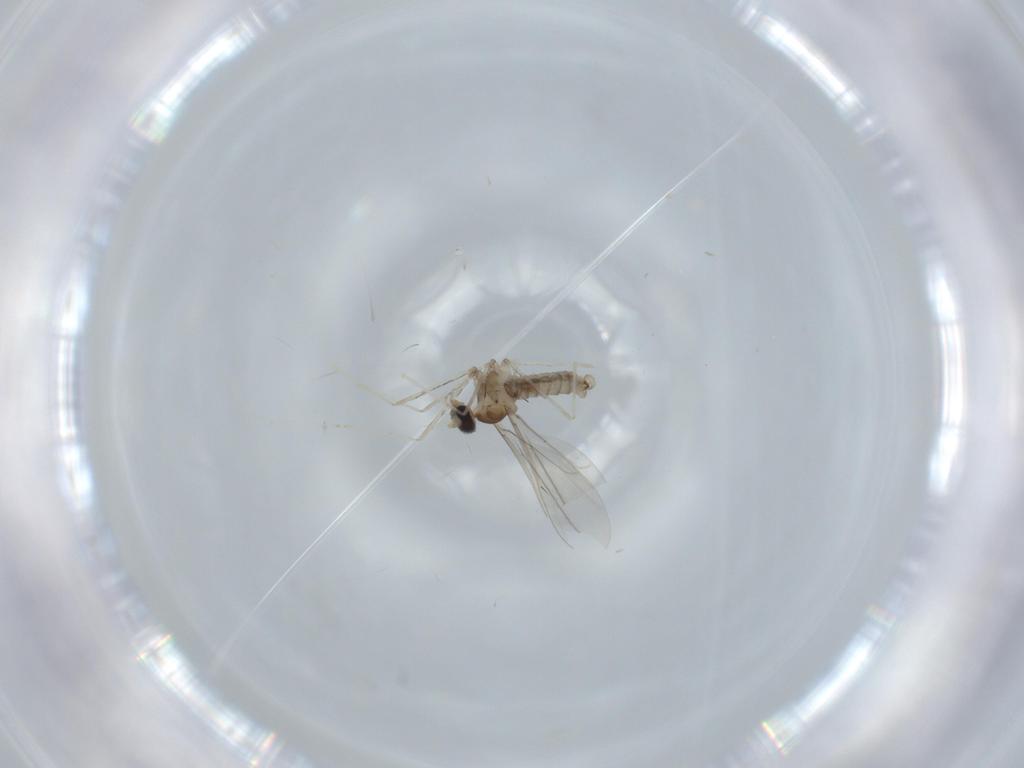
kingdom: Animalia
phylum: Arthropoda
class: Insecta
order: Diptera
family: Cecidomyiidae
